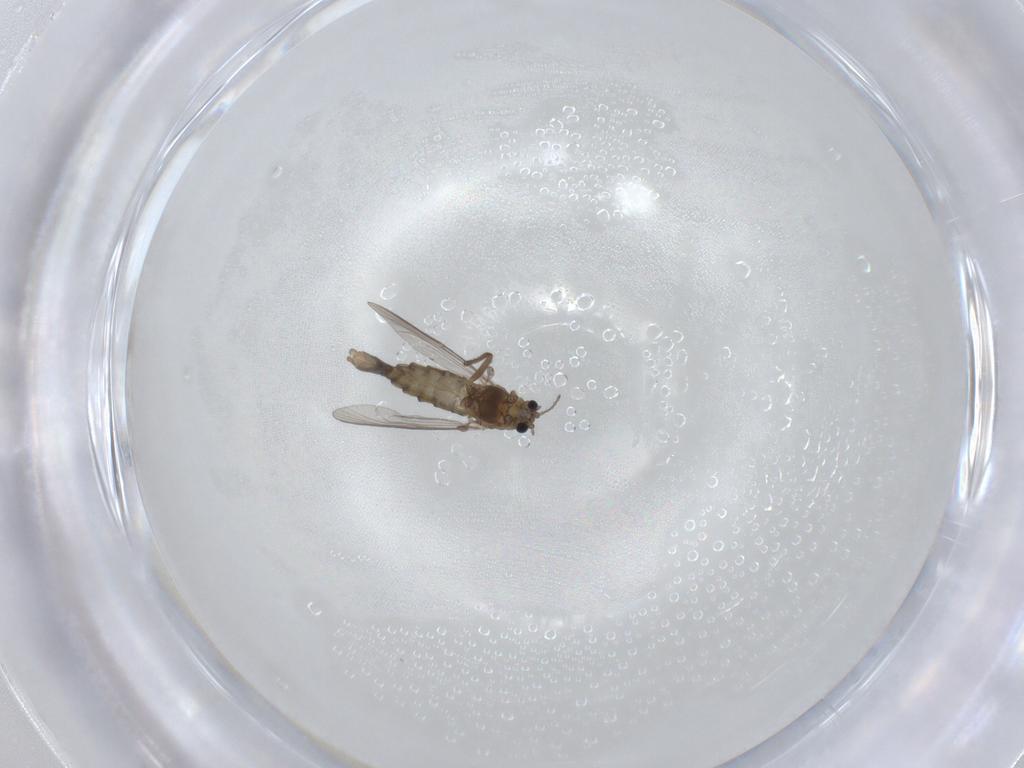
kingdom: Animalia
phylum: Arthropoda
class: Insecta
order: Diptera
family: Chironomidae
